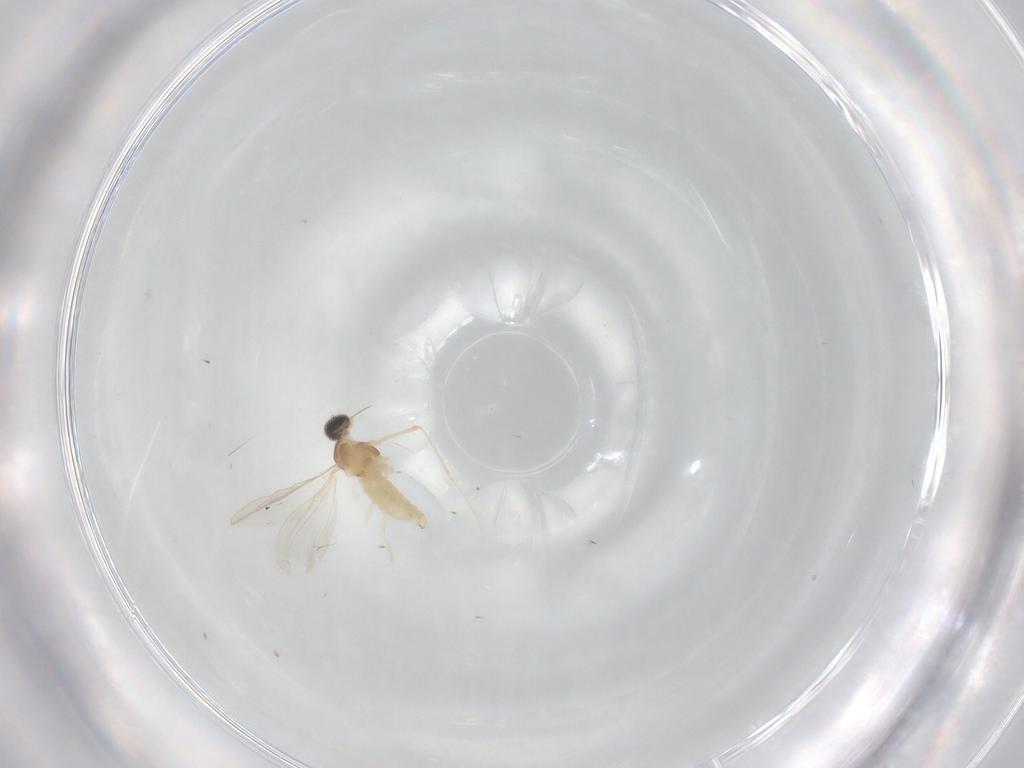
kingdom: Animalia
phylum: Arthropoda
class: Insecta
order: Diptera
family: Cecidomyiidae
